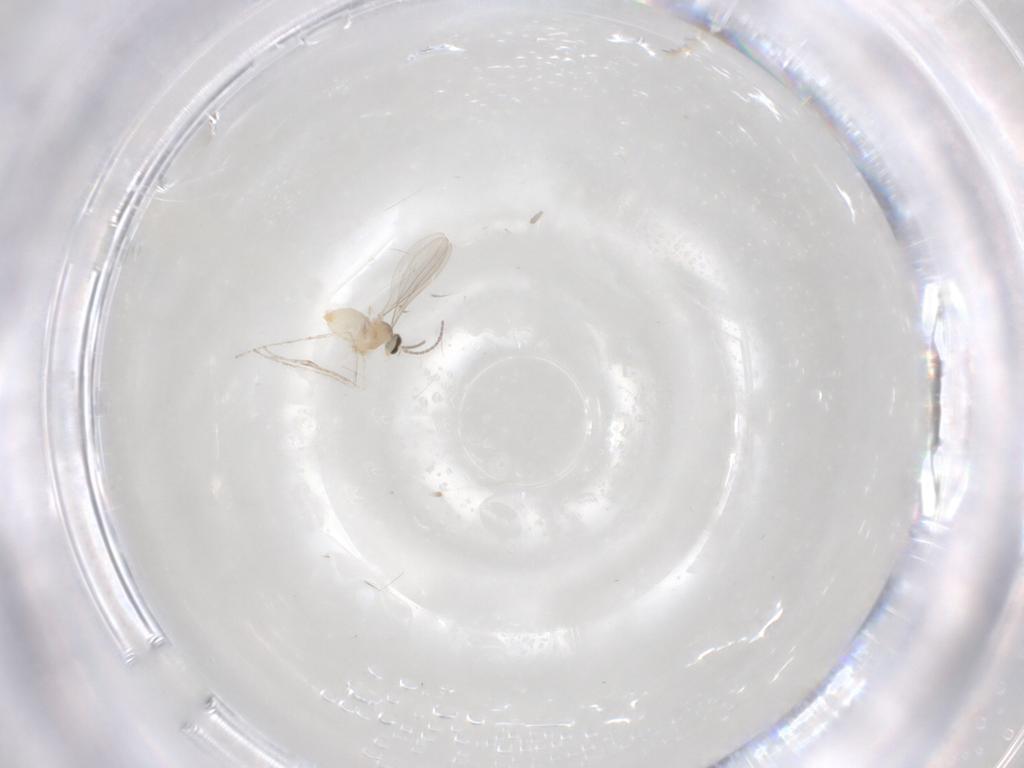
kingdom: Animalia
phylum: Arthropoda
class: Insecta
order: Diptera
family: Cecidomyiidae
